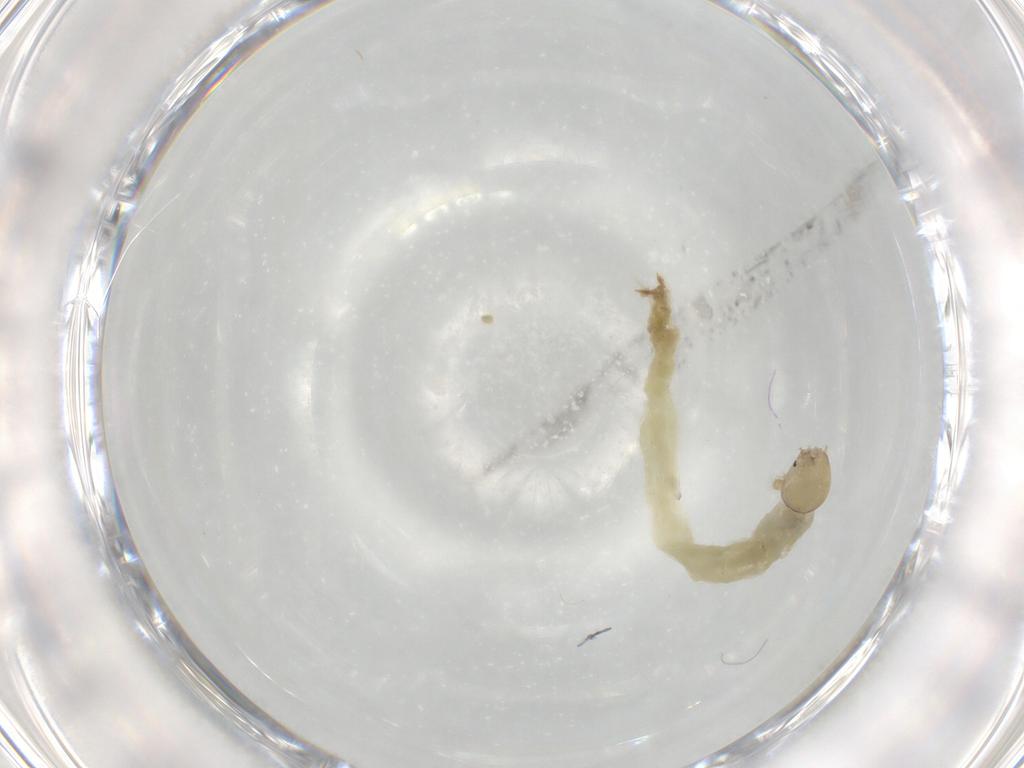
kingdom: Animalia
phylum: Arthropoda
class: Insecta
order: Diptera
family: Chironomidae
